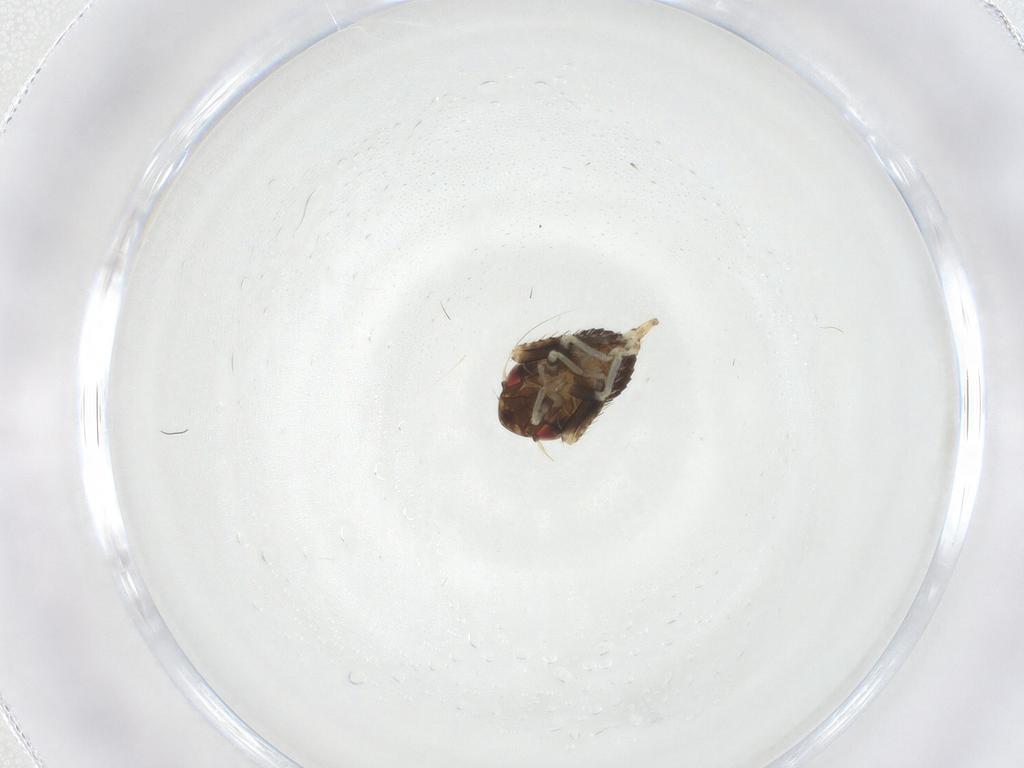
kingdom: Animalia
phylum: Arthropoda
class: Insecta
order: Hemiptera
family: Cicadellidae
